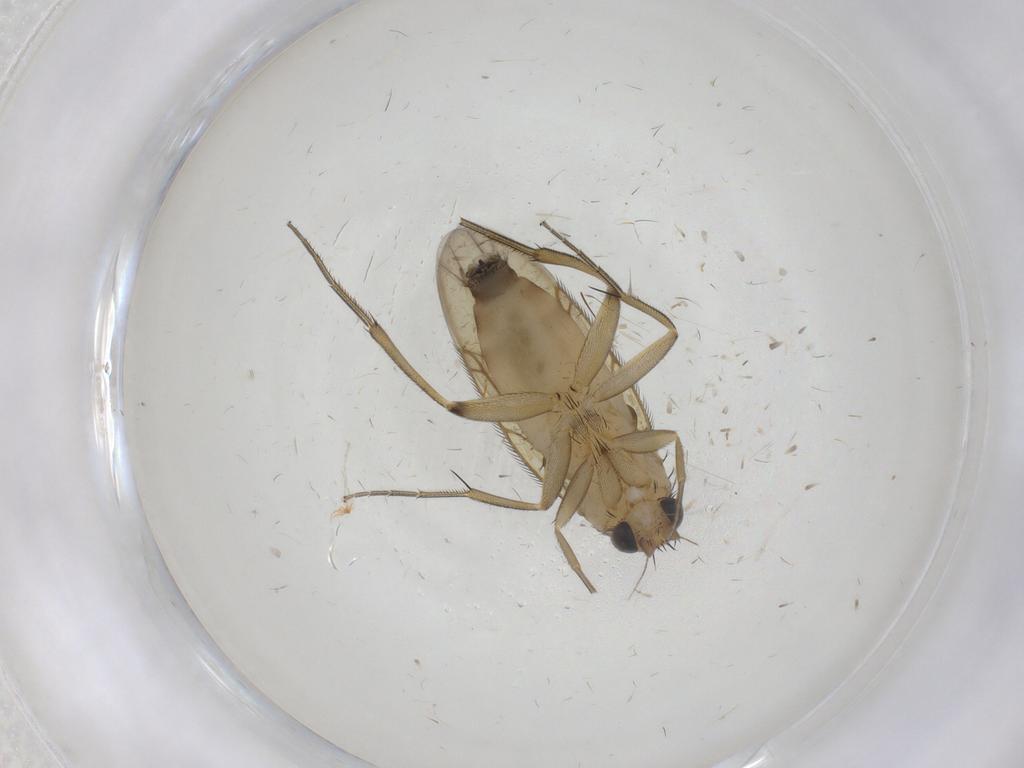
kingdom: Animalia
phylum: Arthropoda
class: Insecta
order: Diptera
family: Phoridae
